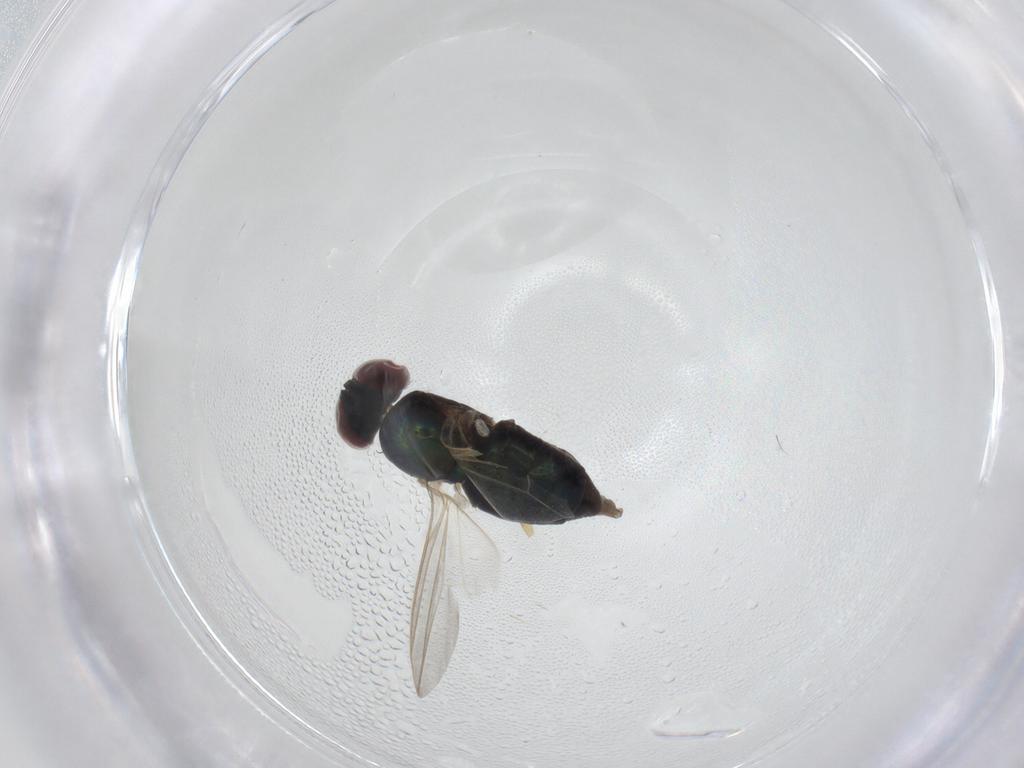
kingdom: Animalia
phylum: Arthropoda
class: Insecta
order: Diptera
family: Dolichopodidae
